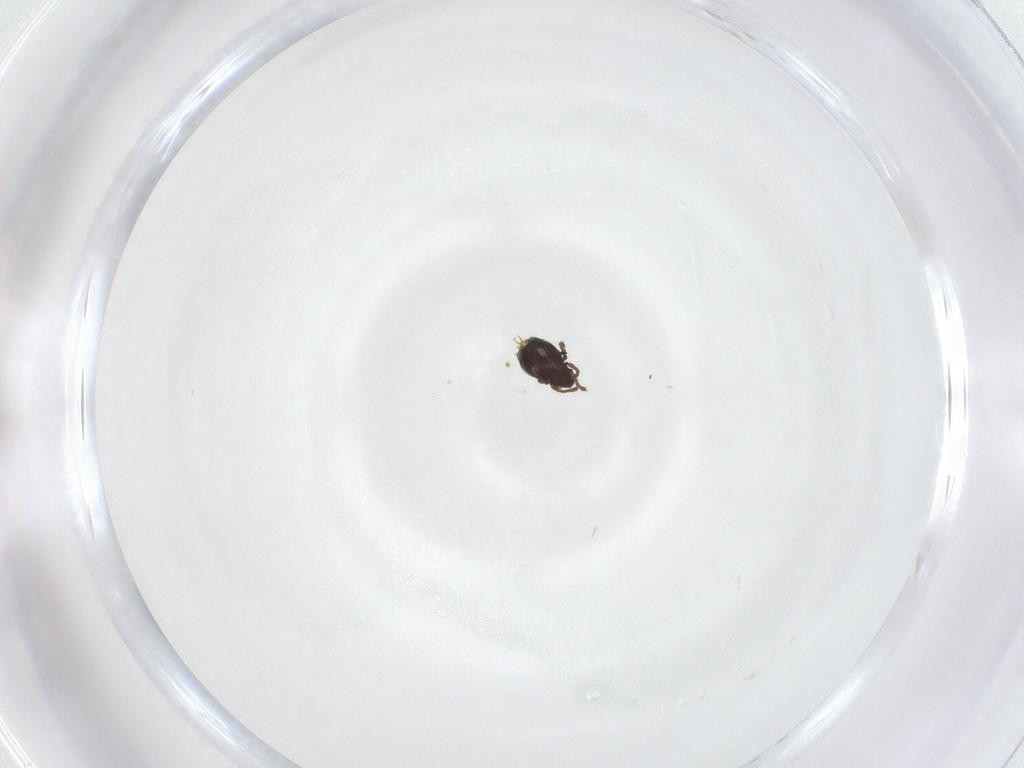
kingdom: Animalia
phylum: Arthropoda
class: Arachnida
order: Sarcoptiformes
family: Lyrifissellidae
